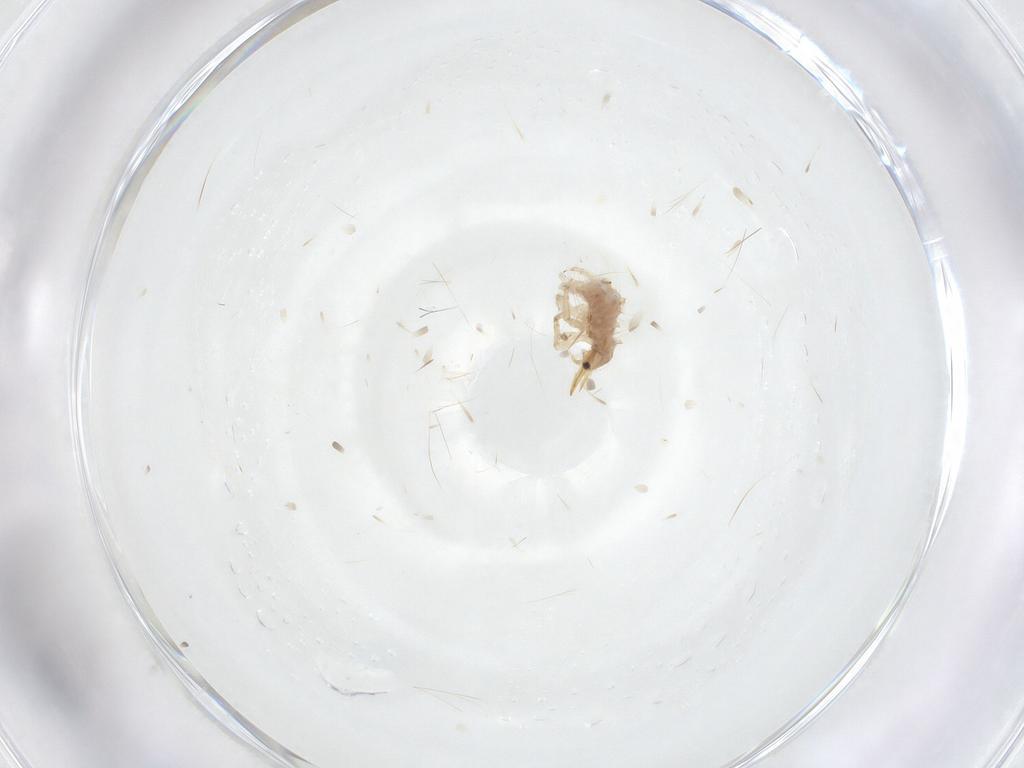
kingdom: Animalia
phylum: Arthropoda
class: Insecta
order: Neuroptera
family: Chrysopidae
